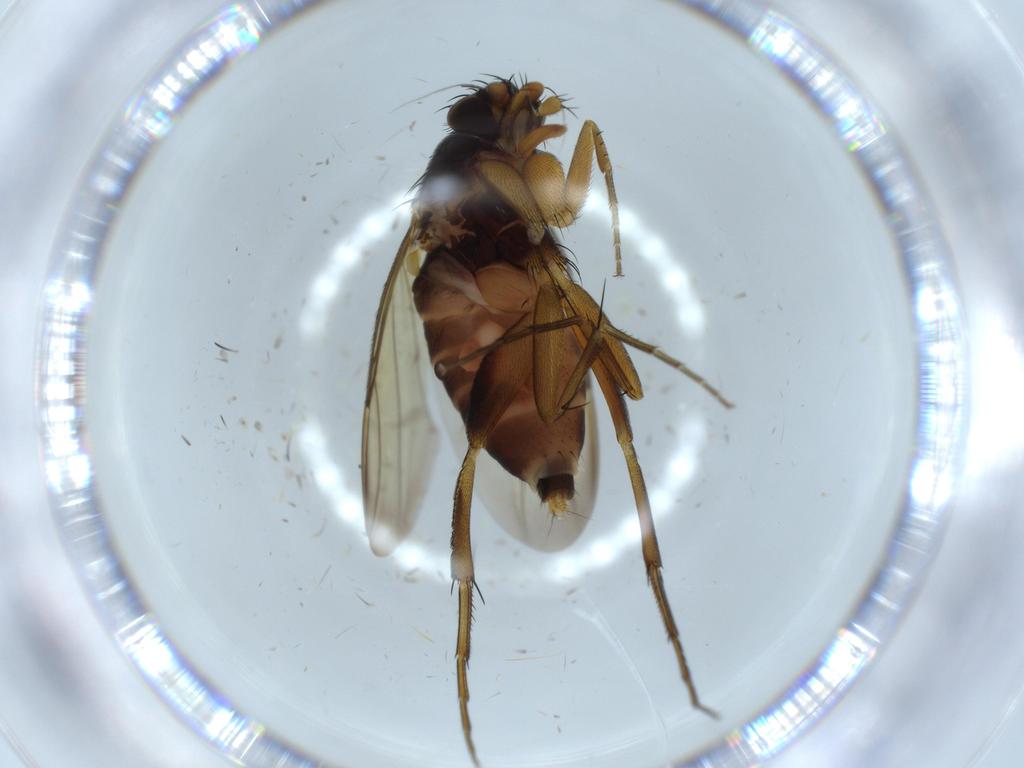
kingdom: Animalia
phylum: Arthropoda
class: Insecta
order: Diptera
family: Phoridae
